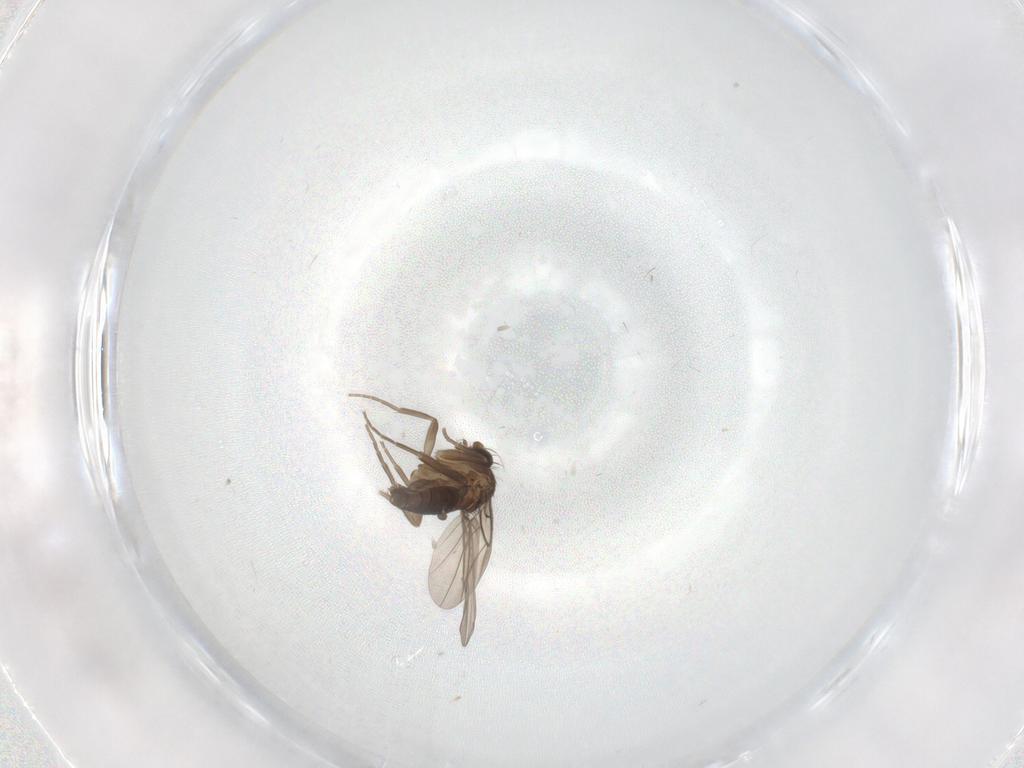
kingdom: Animalia
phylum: Arthropoda
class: Insecta
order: Diptera
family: Phoridae
